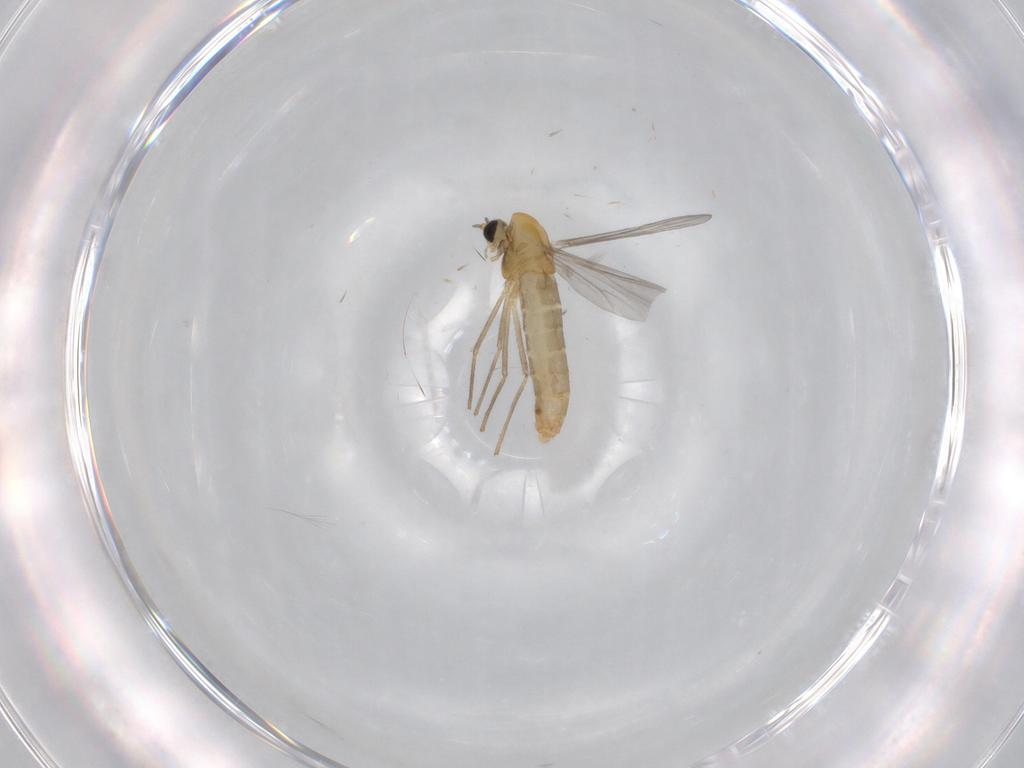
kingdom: Animalia
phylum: Arthropoda
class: Insecta
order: Diptera
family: Chironomidae
